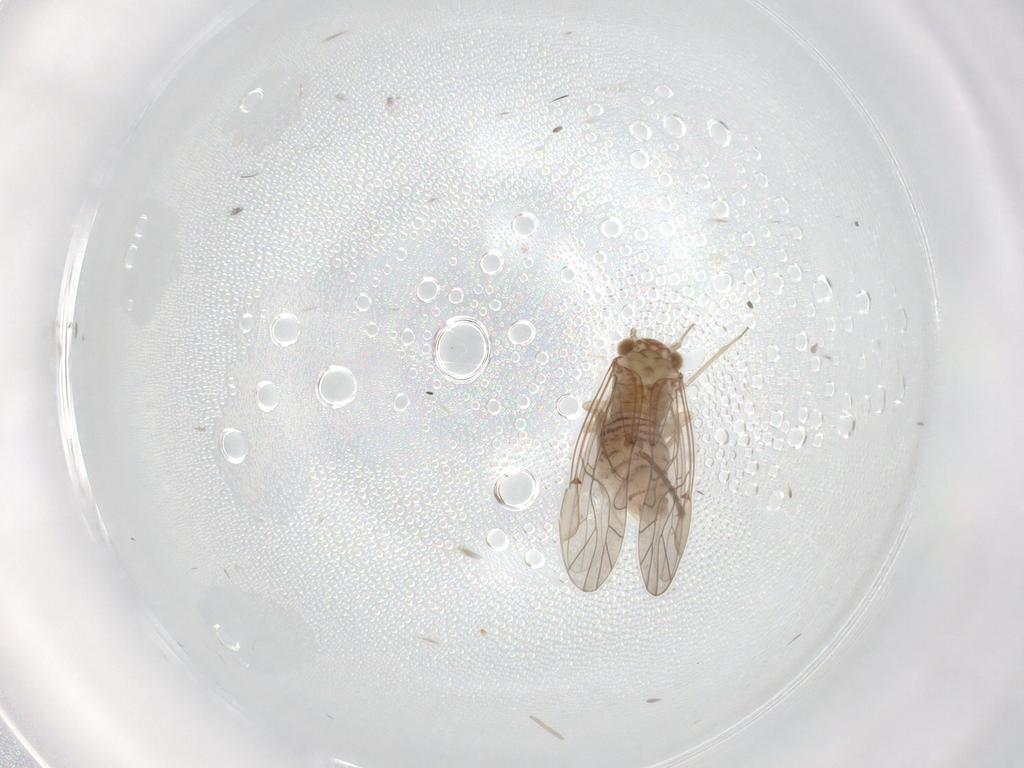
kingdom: Animalia
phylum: Arthropoda
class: Insecta
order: Psocodea
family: Lachesillidae
